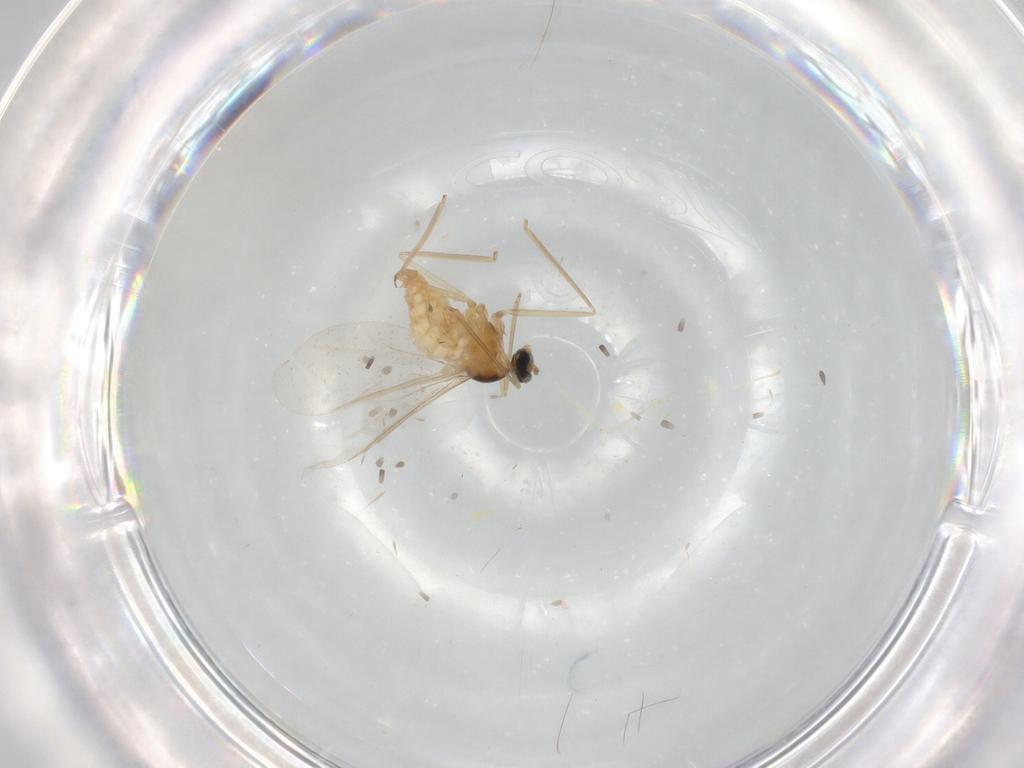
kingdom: Animalia
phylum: Arthropoda
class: Insecta
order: Diptera
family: Cecidomyiidae
